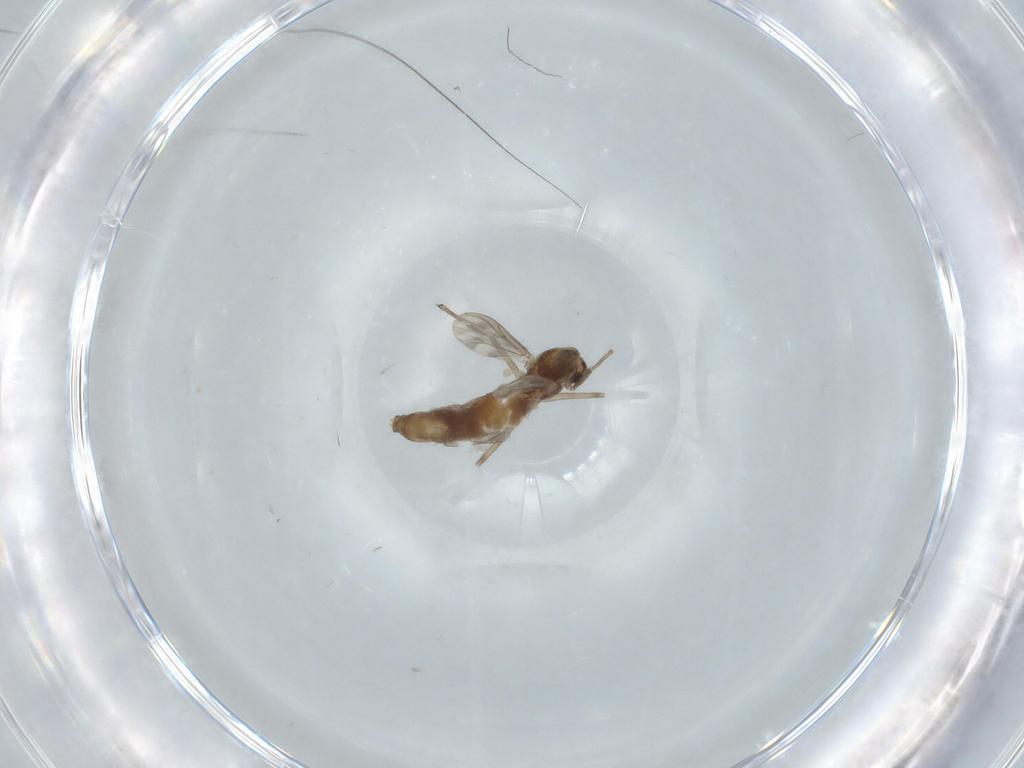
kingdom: Animalia
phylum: Arthropoda
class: Insecta
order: Diptera
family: Chironomidae
